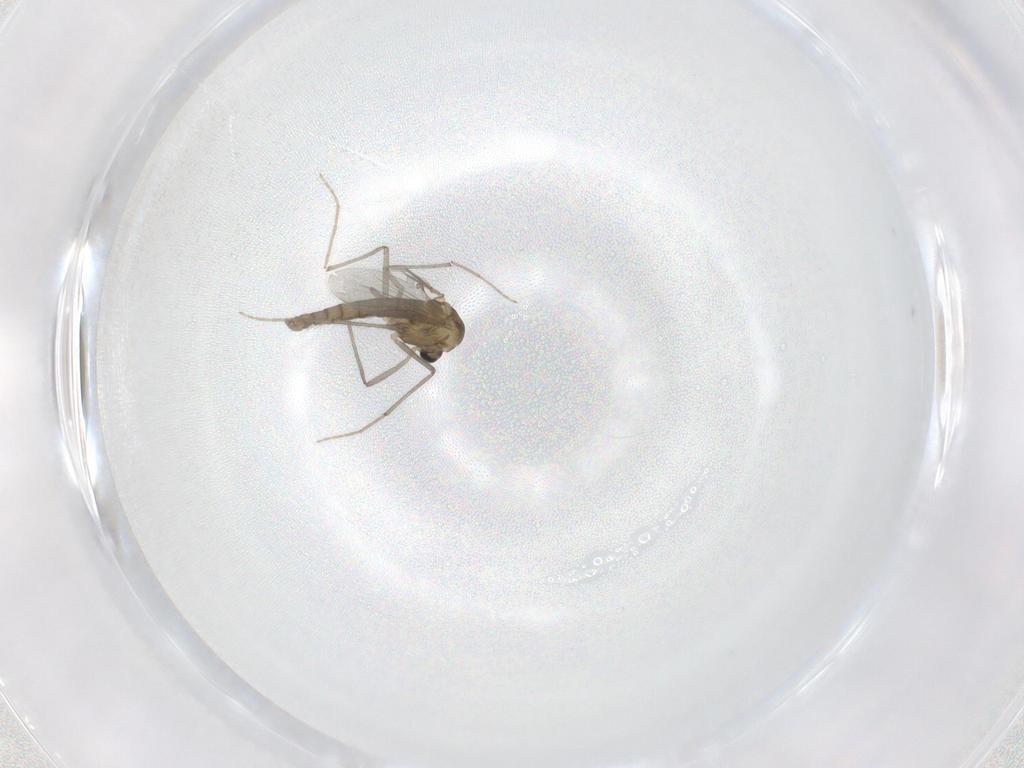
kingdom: Animalia
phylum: Arthropoda
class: Insecta
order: Diptera
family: Chironomidae
